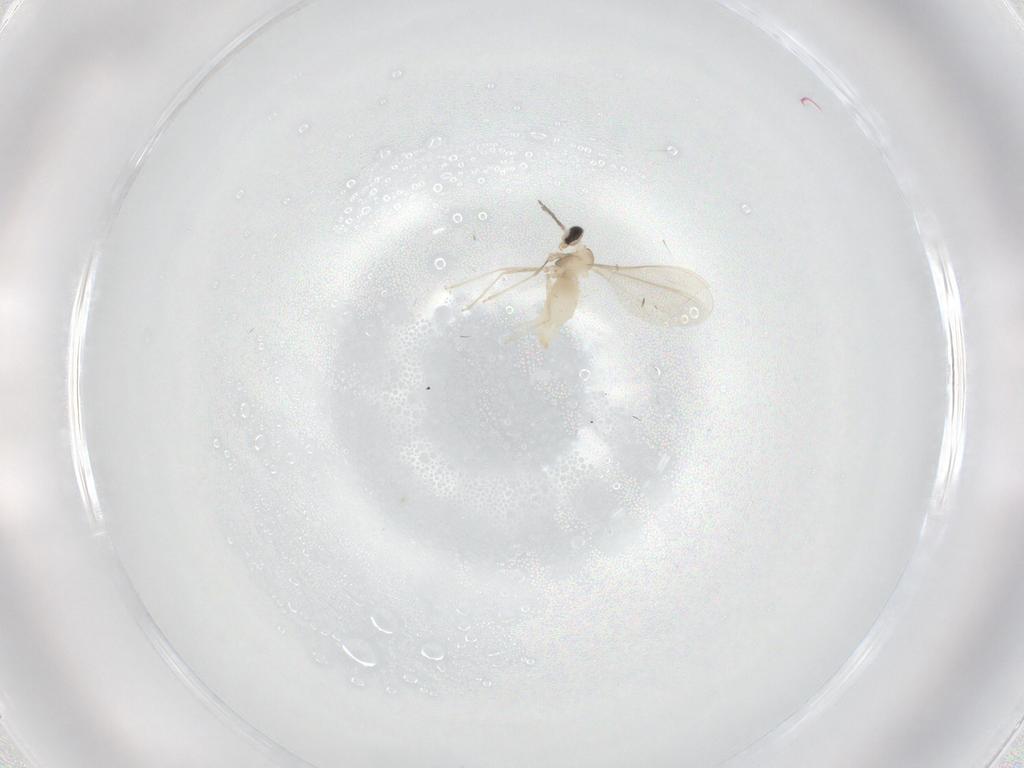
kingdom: Animalia
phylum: Arthropoda
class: Insecta
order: Diptera
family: Cecidomyiidae
